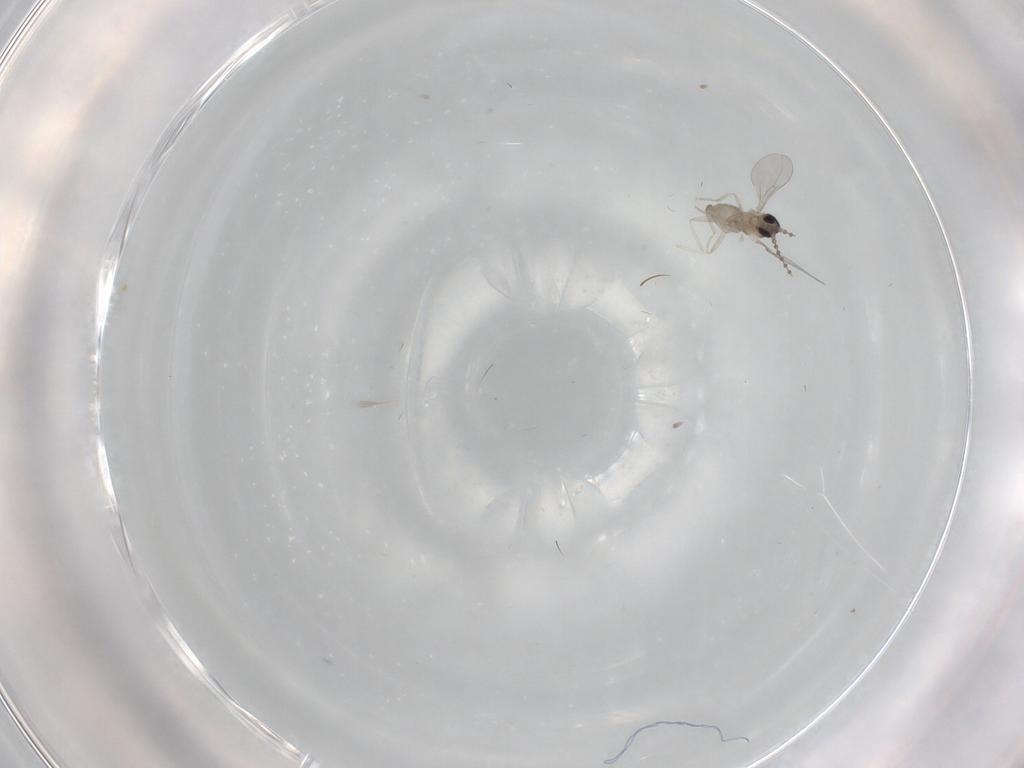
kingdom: Animalia
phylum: Arthropoda
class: Insecta
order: Diptera
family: Cecidomyiidae
